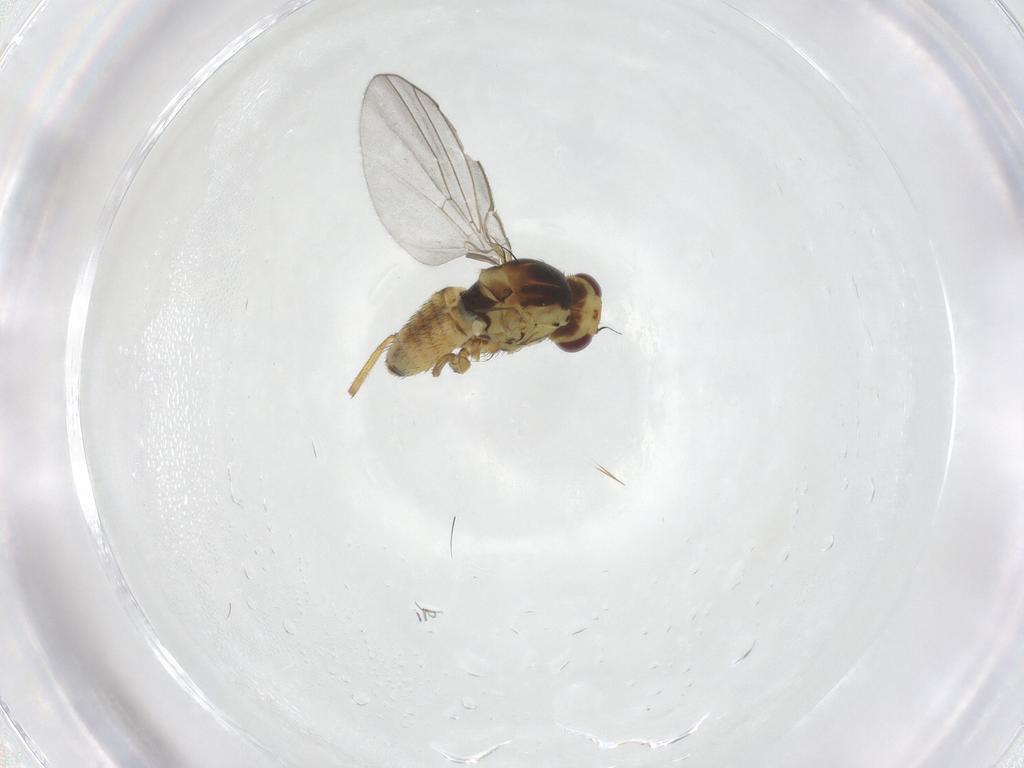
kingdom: Animalia
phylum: Arthropoda
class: Insecta
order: Diptera
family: Agromyzidae
